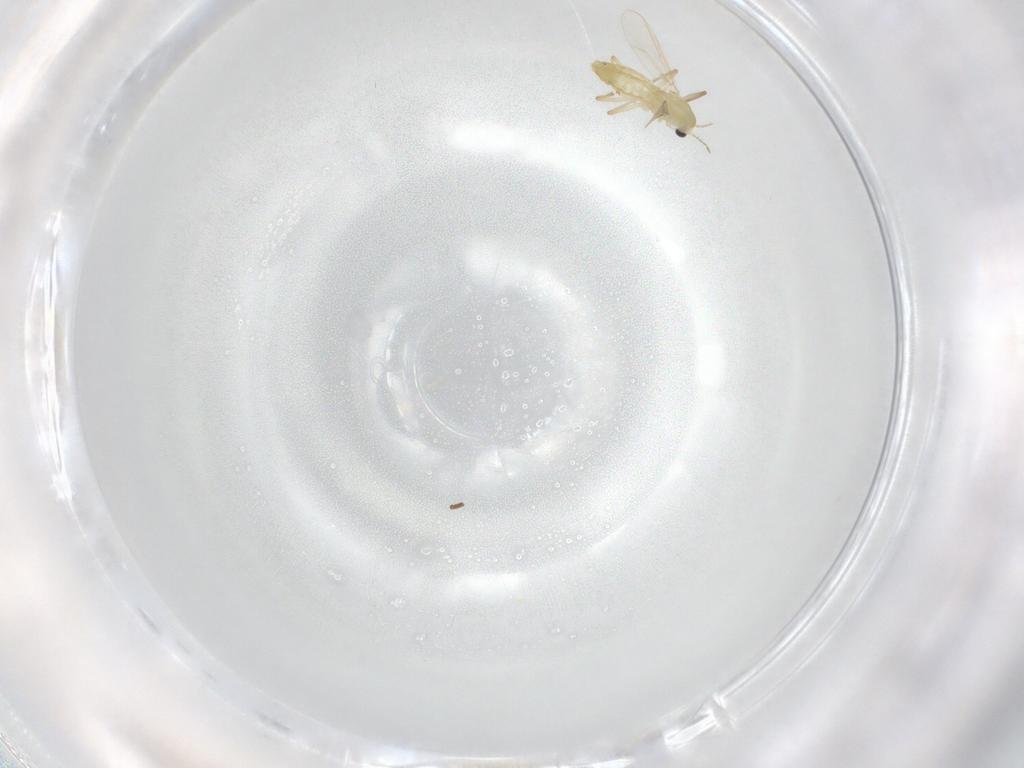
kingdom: Animalia
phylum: Arthropoda
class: Insecta
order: Diptera
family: Chironomidae
